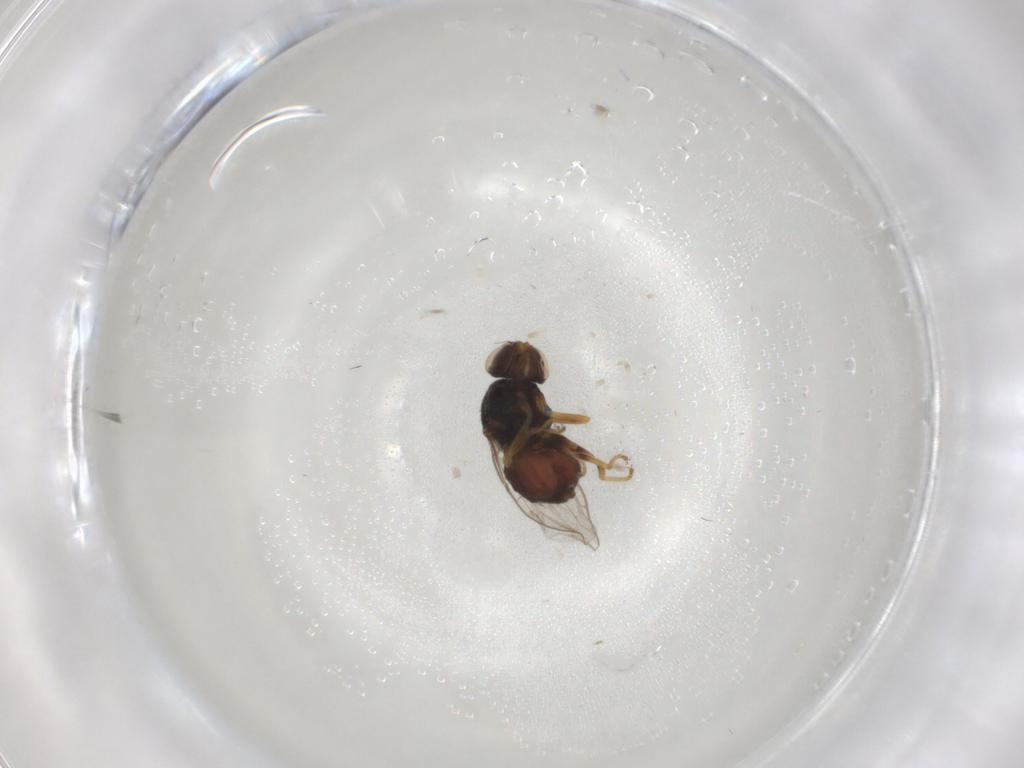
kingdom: Animalia
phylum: Arthropoda
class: Insecta
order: Diptera
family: Chloropidae
